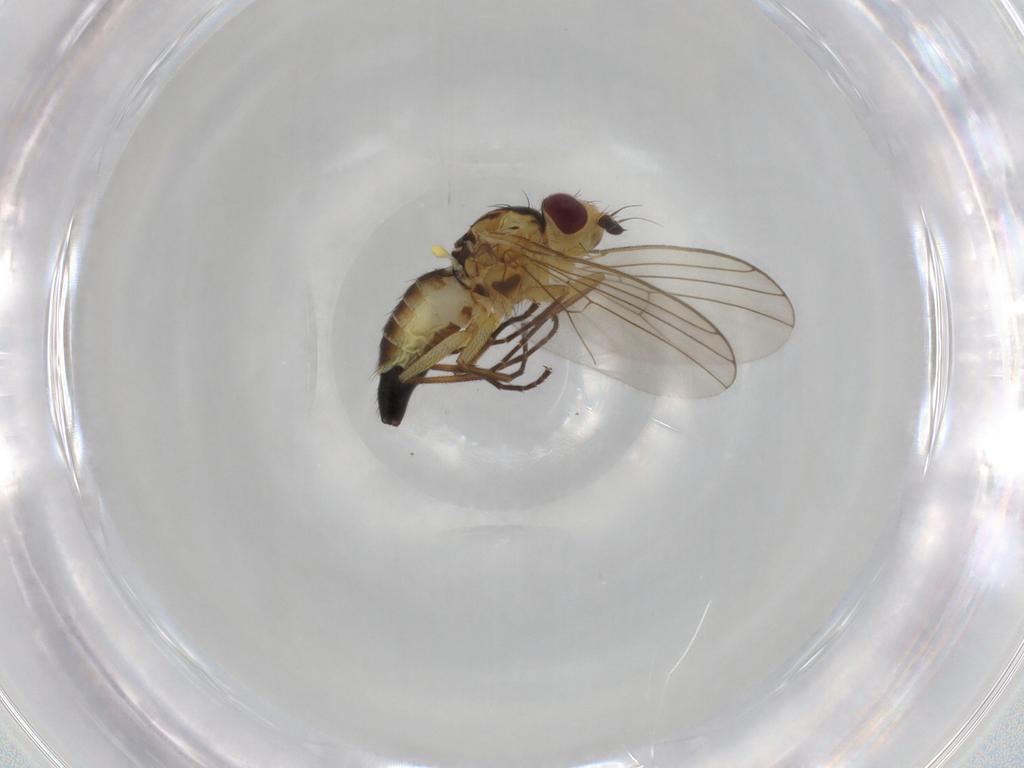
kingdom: Animalia
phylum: Arthropoda
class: Insecta
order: Diptera
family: Agromyzidae
